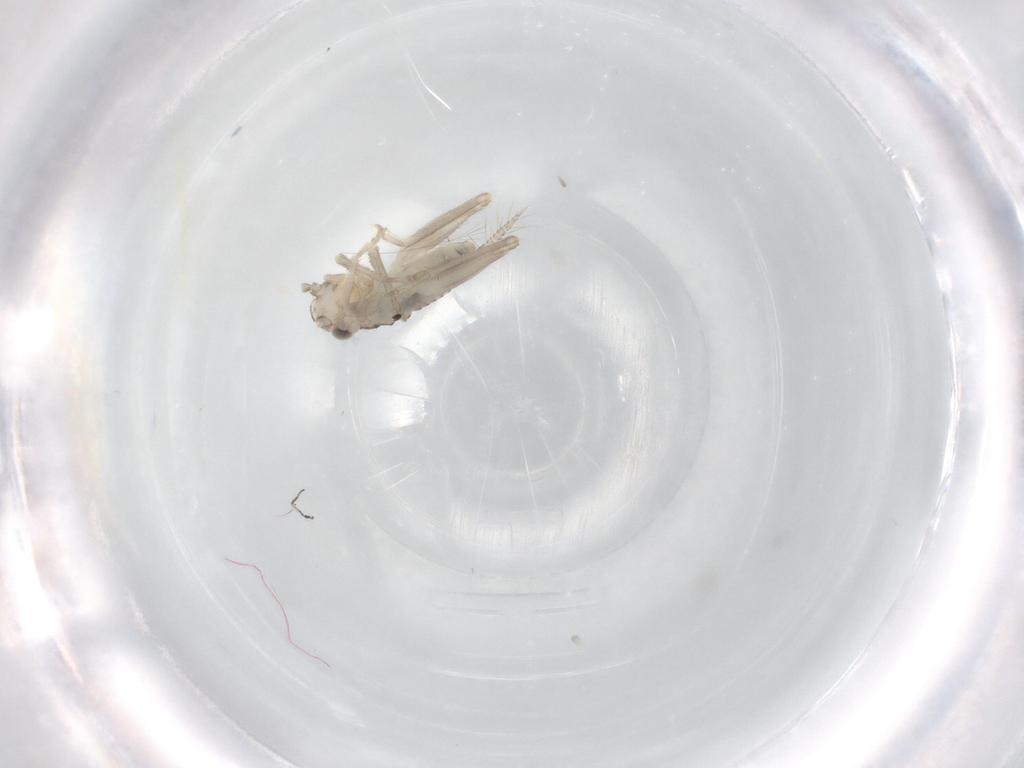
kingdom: Animalia
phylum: Arthropoda
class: Insecta
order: Orthoptera
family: Trigonidiidae
